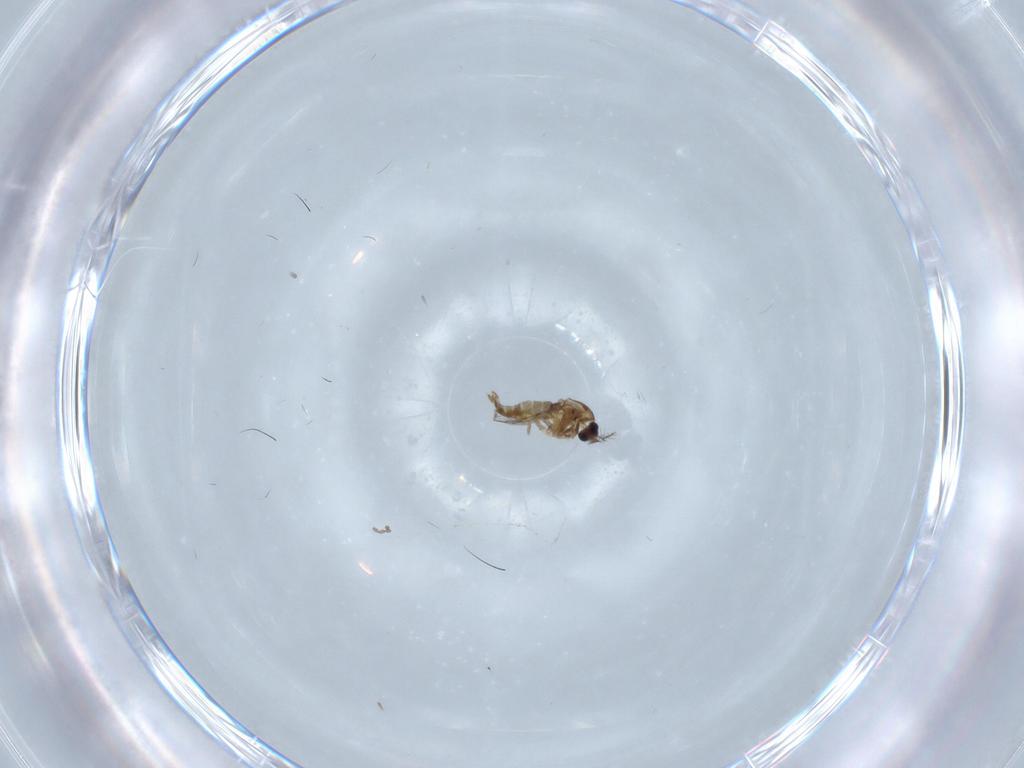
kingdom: Animalia
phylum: Arthropoda
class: Insecta
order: Diptera
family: Chironomidae
